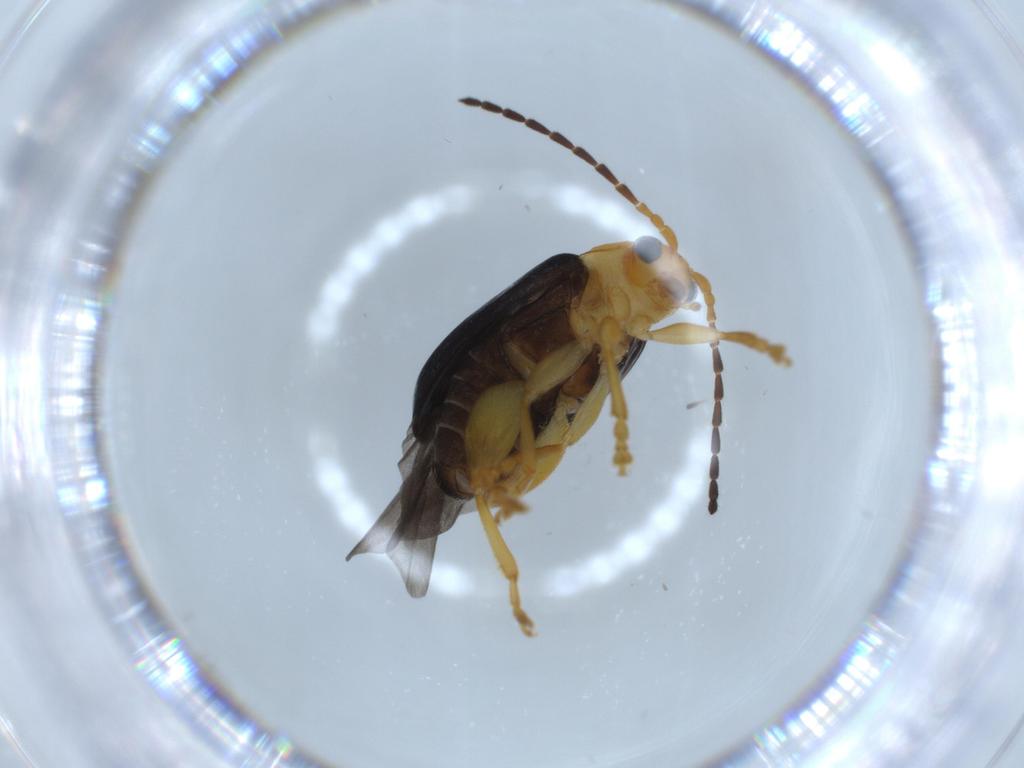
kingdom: Animalia
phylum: Arthropoda
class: Insecta
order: Coleoptera
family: Chrysomelidae
